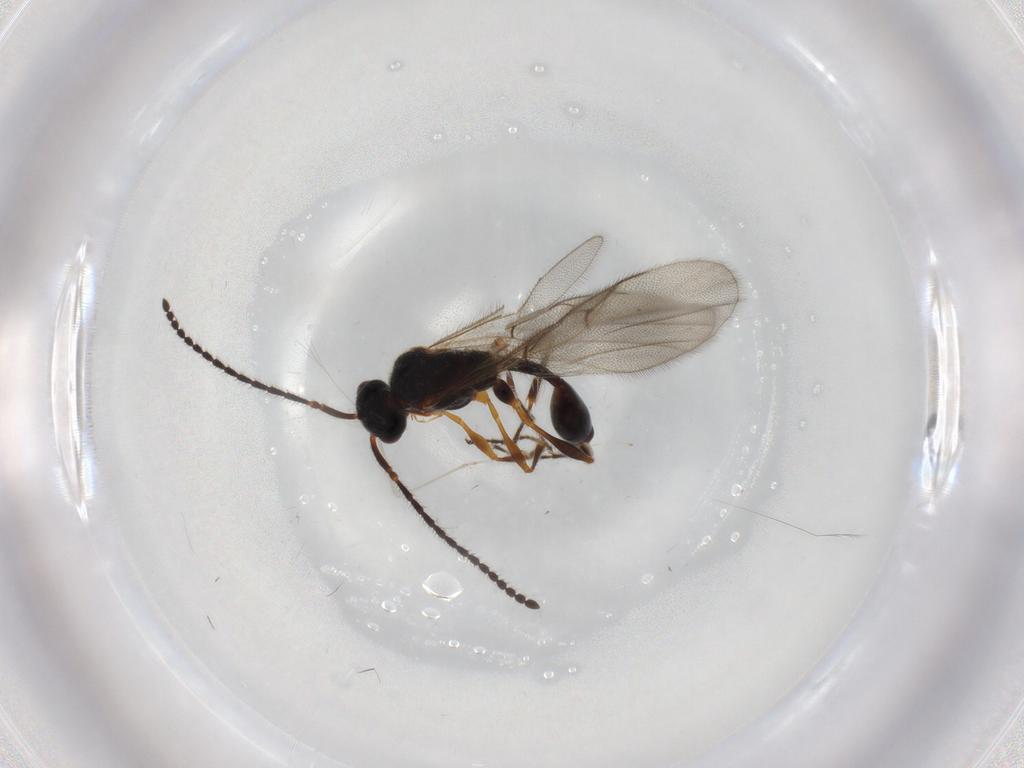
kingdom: Animalia
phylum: Arthropoda
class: Insecta
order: Hymenoptera
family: Diapriidae
